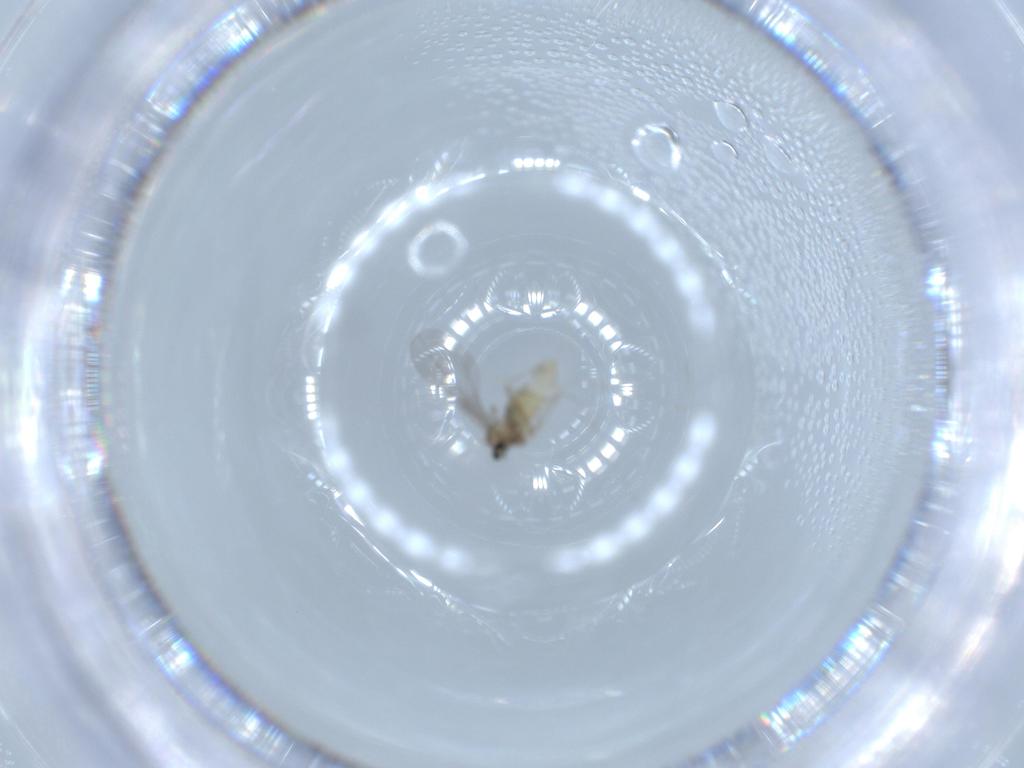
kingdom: Animalia
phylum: Arthropoda
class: Insecta
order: Diptera
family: Cecidomyiidae
